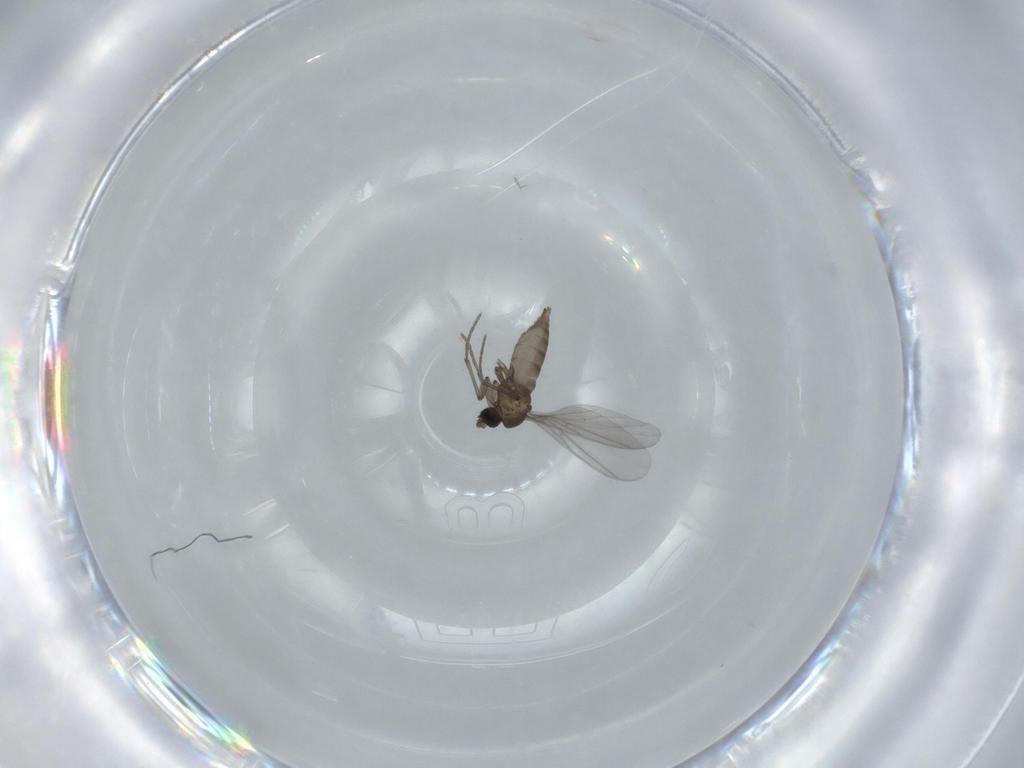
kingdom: Animalia
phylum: Arthropoda
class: Insecta
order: Diptera
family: Sciaridae
